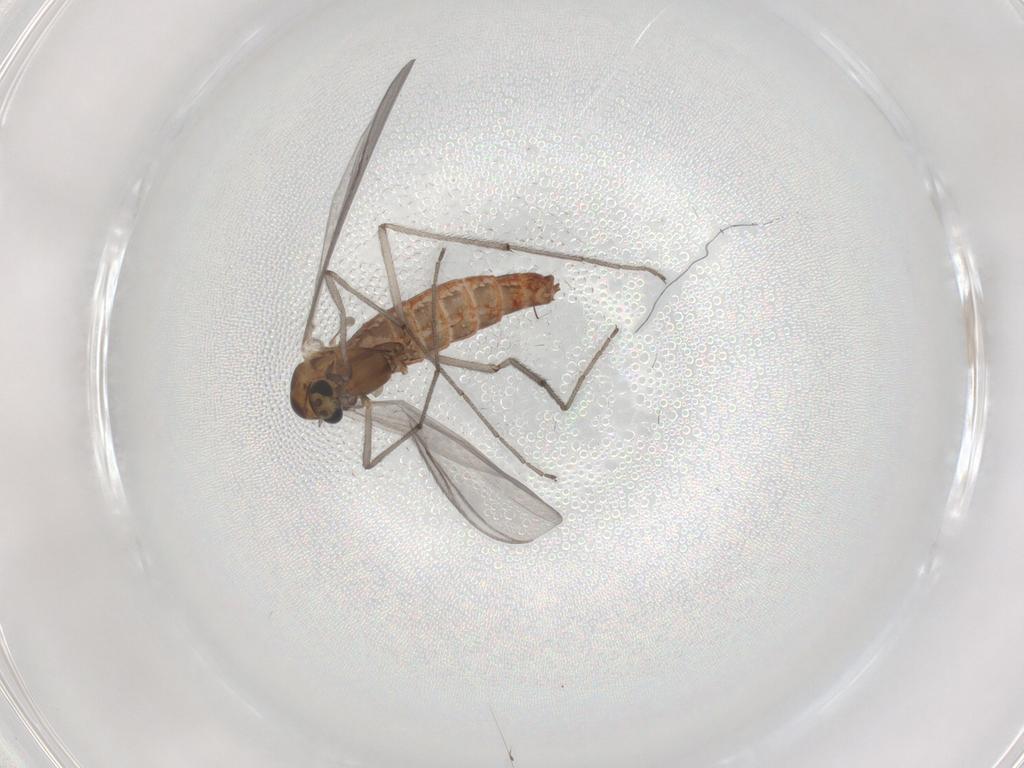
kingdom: Animalia
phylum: Arthropoda
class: Insecta
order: Diptera
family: Chironomidae
